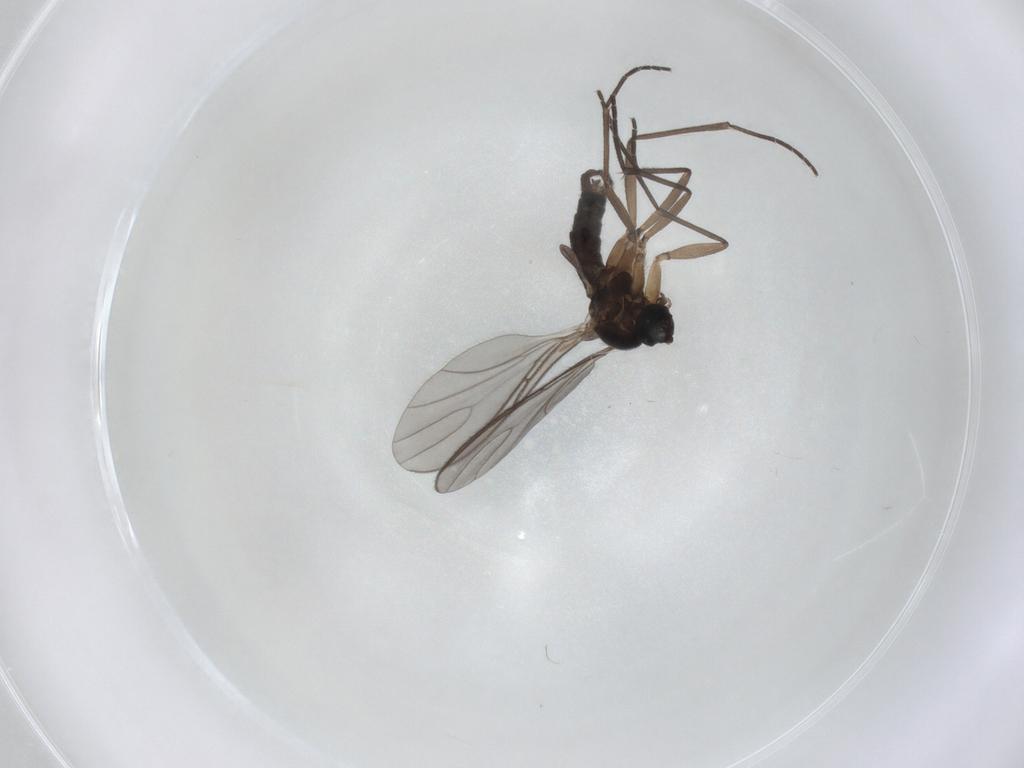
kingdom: Animalia
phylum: Arthropoda
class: Insecta
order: Diptera
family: Sciaridae
